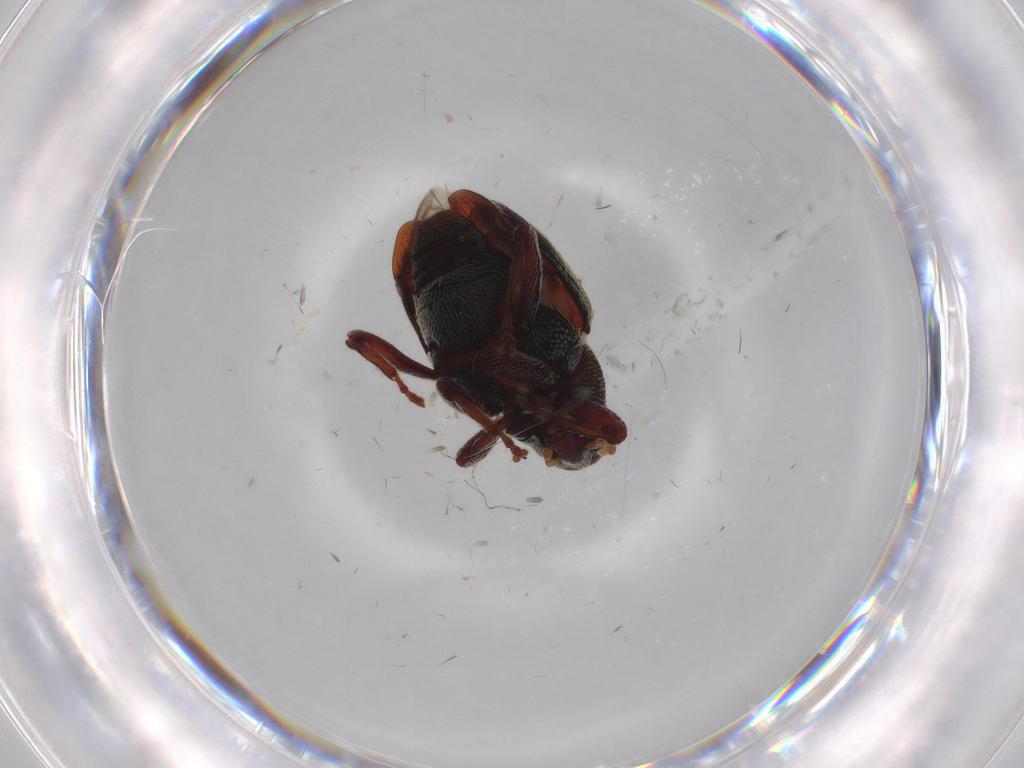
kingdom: Animalia
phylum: Arthropoda
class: Insecta
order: Coleoptera
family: Curculionidae
